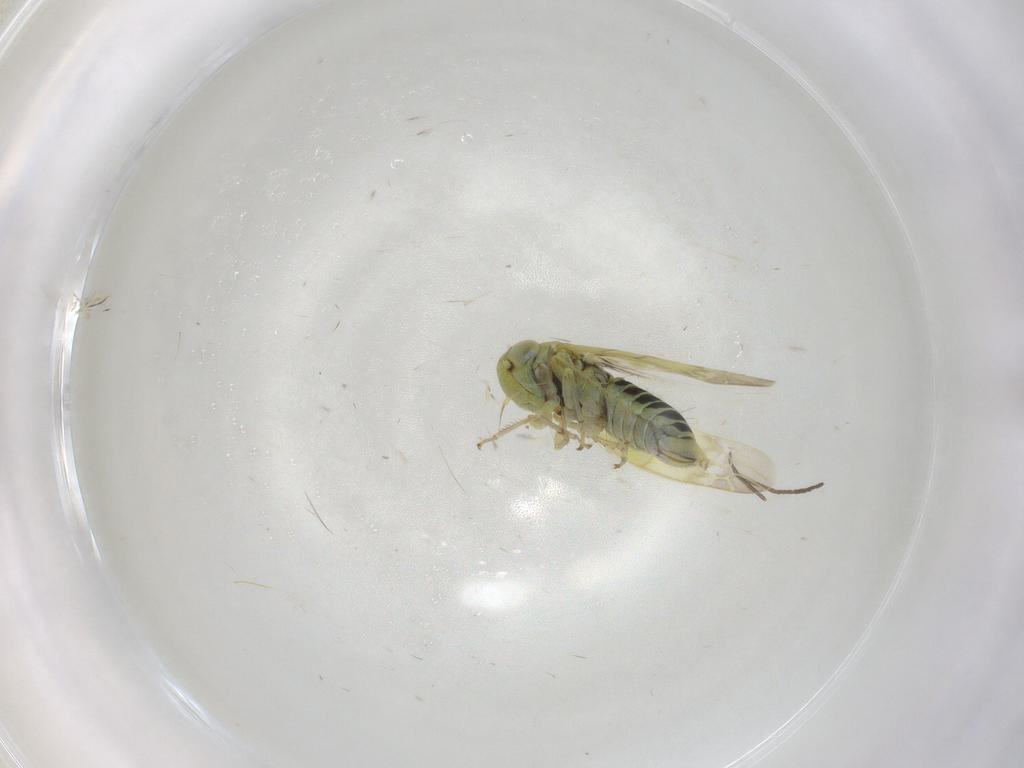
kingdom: Animalia
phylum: Arthropoda
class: Insecta
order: Hemiptera
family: Cicadellidae
